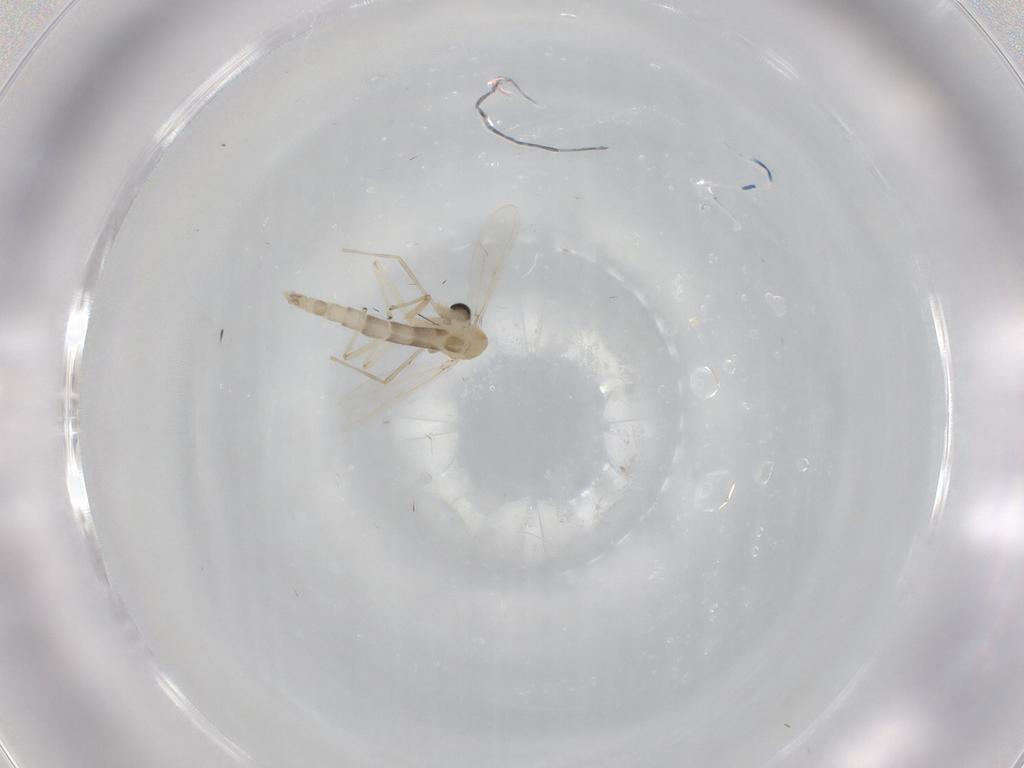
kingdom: Animalia
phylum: Arthropoda
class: Insecta
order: Diptera
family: Chironomidae
